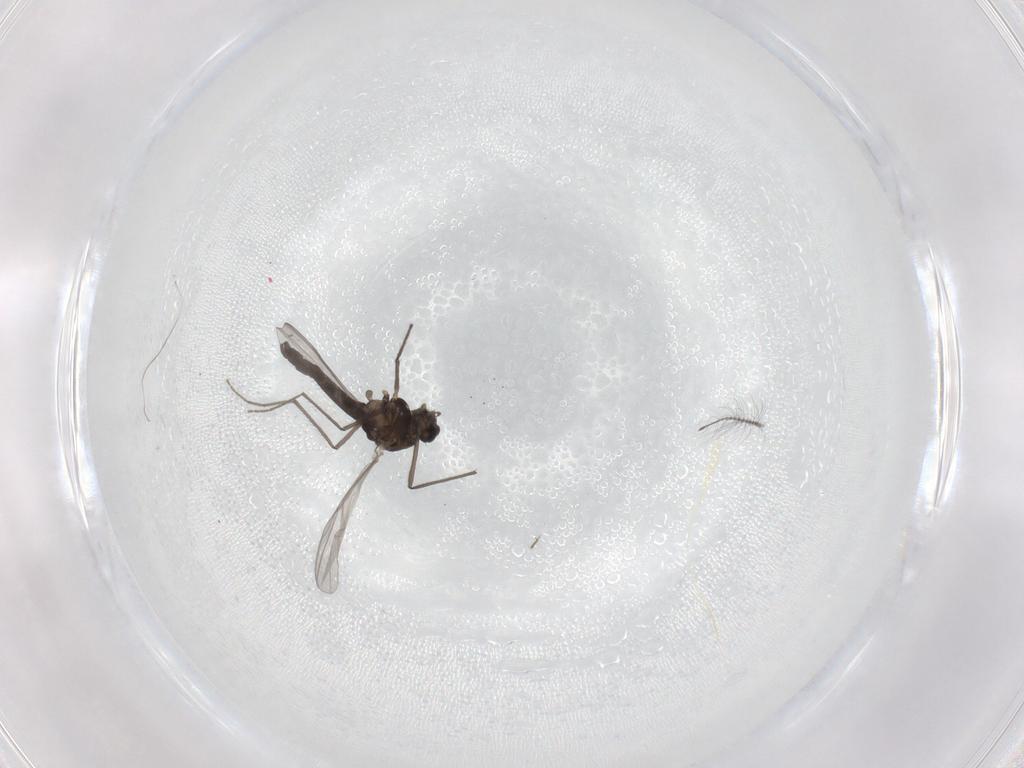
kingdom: Animalia
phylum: Arthropoda
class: Insecta
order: Diptera
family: Chironomidae
